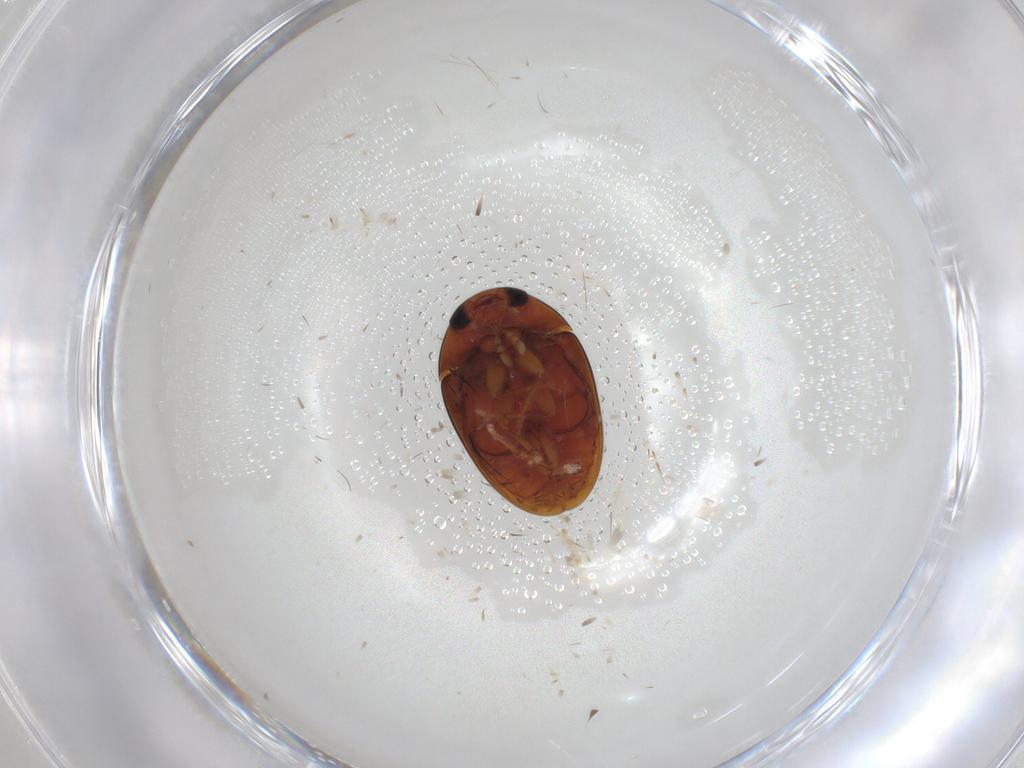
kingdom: Animalia
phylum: Arthropoda
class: Insecta
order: Coleoptera
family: Phalacridae
